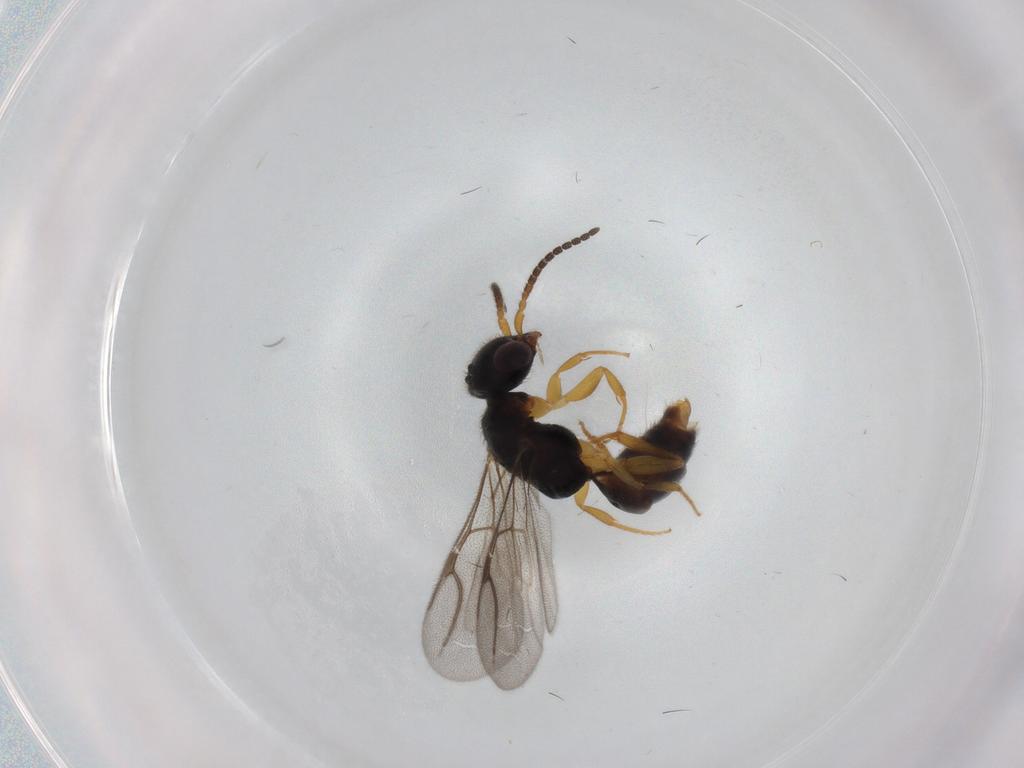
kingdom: Animalia
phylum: Arthropoda
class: Insecta
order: Hymenoptera
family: Bethylidae
